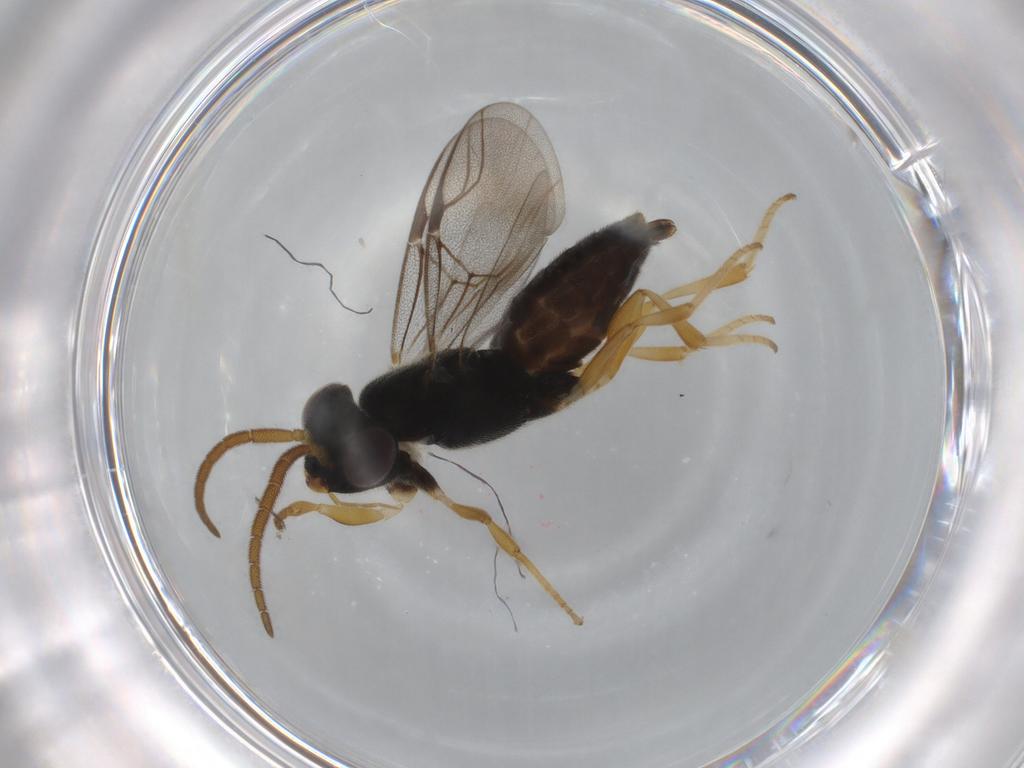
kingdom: Animalia
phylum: Arthropoda
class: Insecta
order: Hymenoptera
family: Dryinidae
